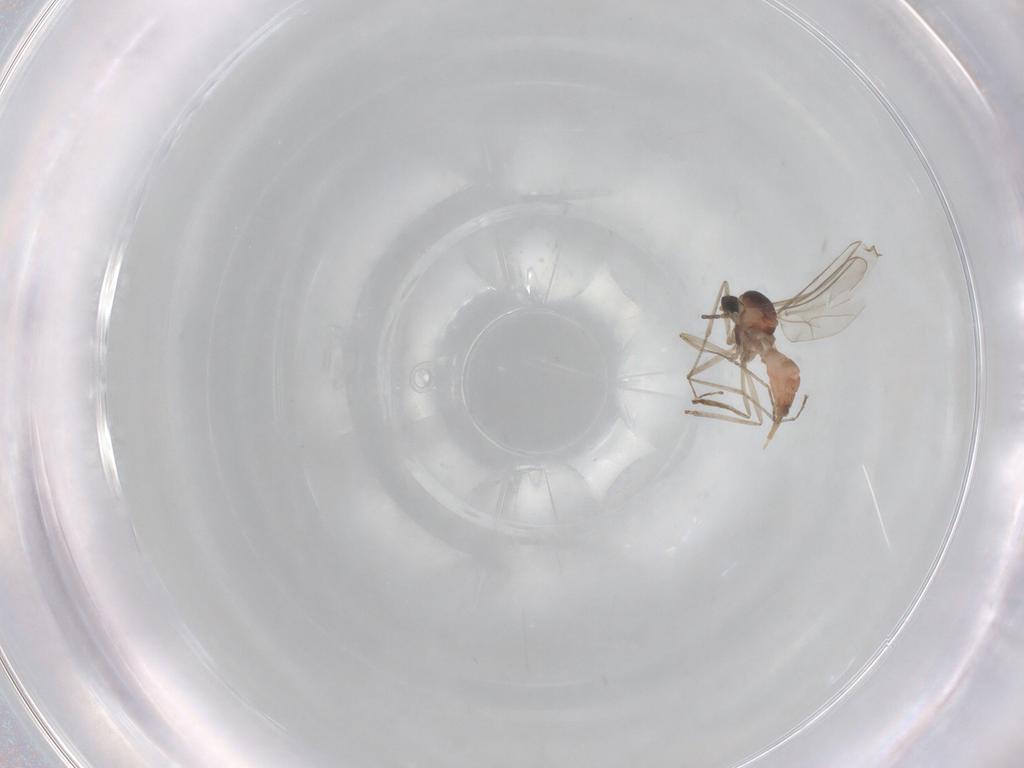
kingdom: Animalia
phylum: Arthropoda
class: Insecta
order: Diptera
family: Cecidomyiidae
